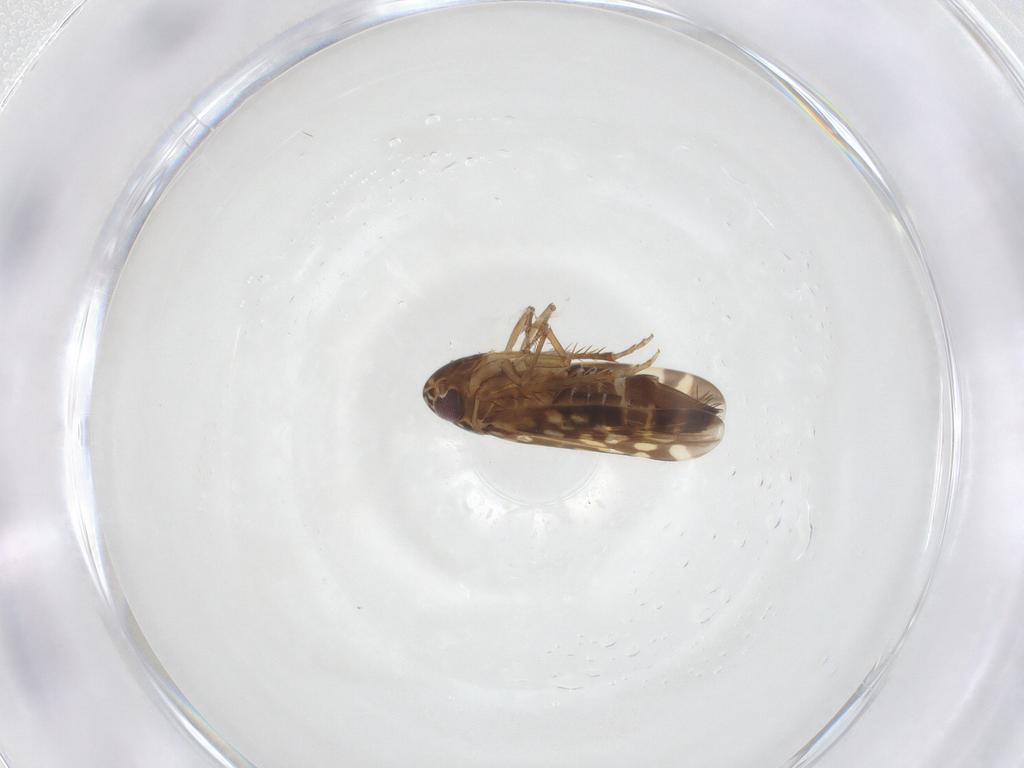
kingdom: Animalia
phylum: Arthropoda
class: Insecta
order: Hemiptera
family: Cicadellidae
